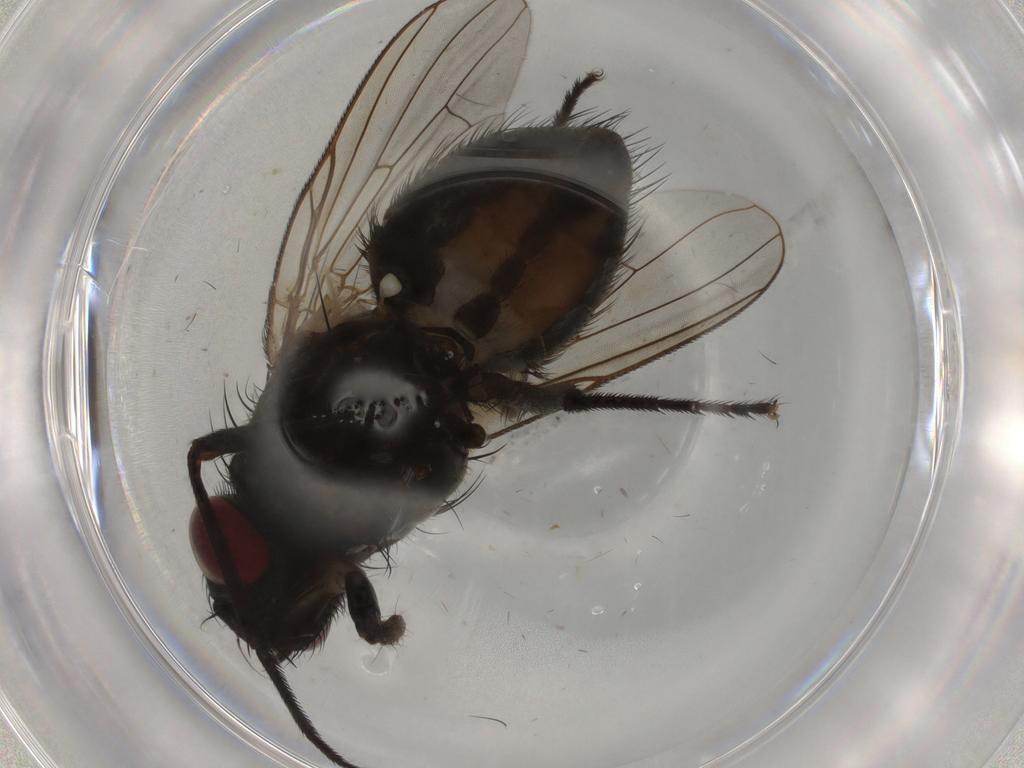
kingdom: Animalia
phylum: Arthropoda
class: Insecta
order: Diptera
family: Muscidae
